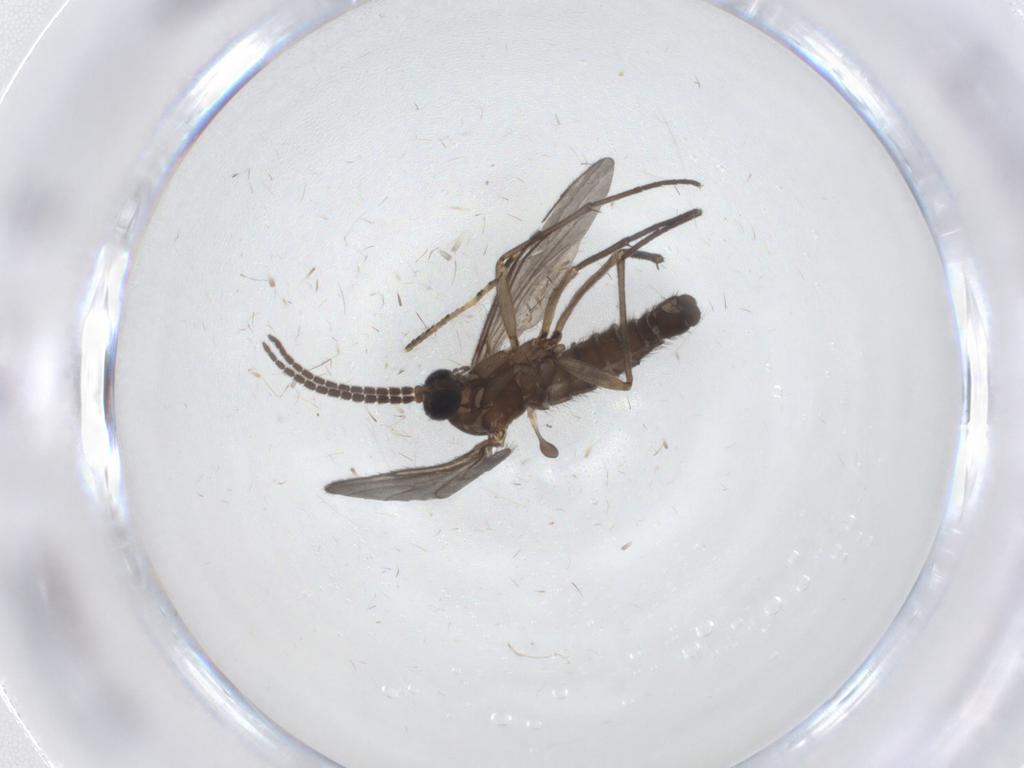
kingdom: Animalia
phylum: Arthropoda
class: Insecta
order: Diptera
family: Sciaridae
